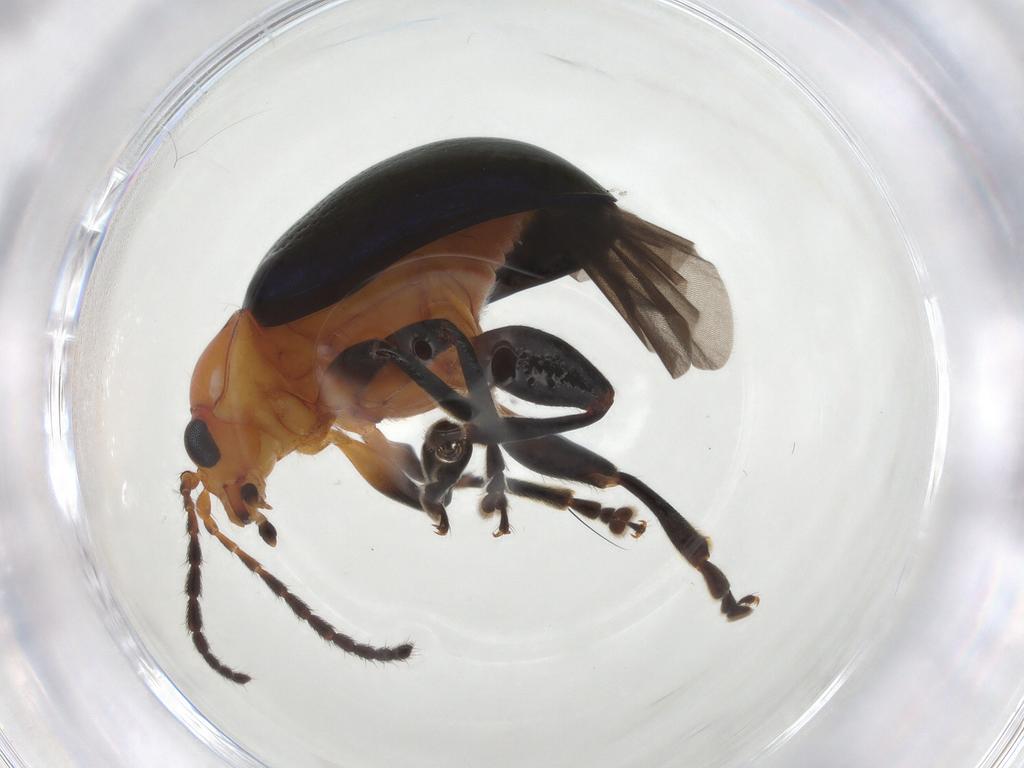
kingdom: Animalia
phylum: Arthropoda
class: Insecta
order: Coleoptera
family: Chrysomelidae
